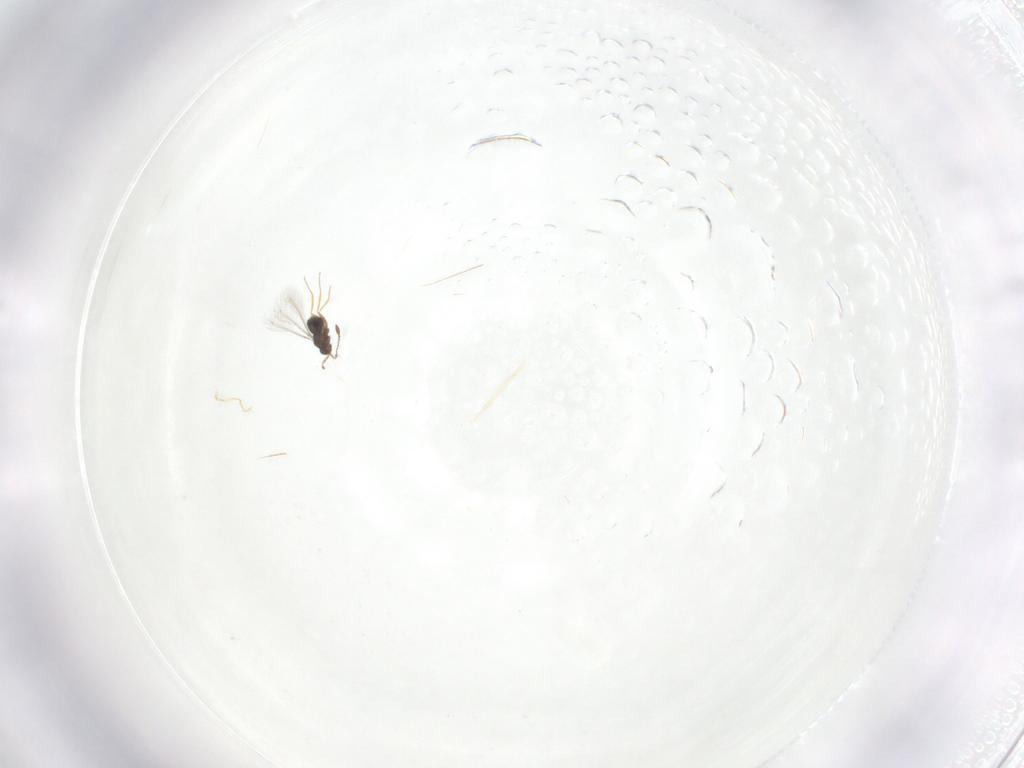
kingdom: Animalia
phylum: Arthropoda
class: Insecta
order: Hymenoptera
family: Mymaridae
